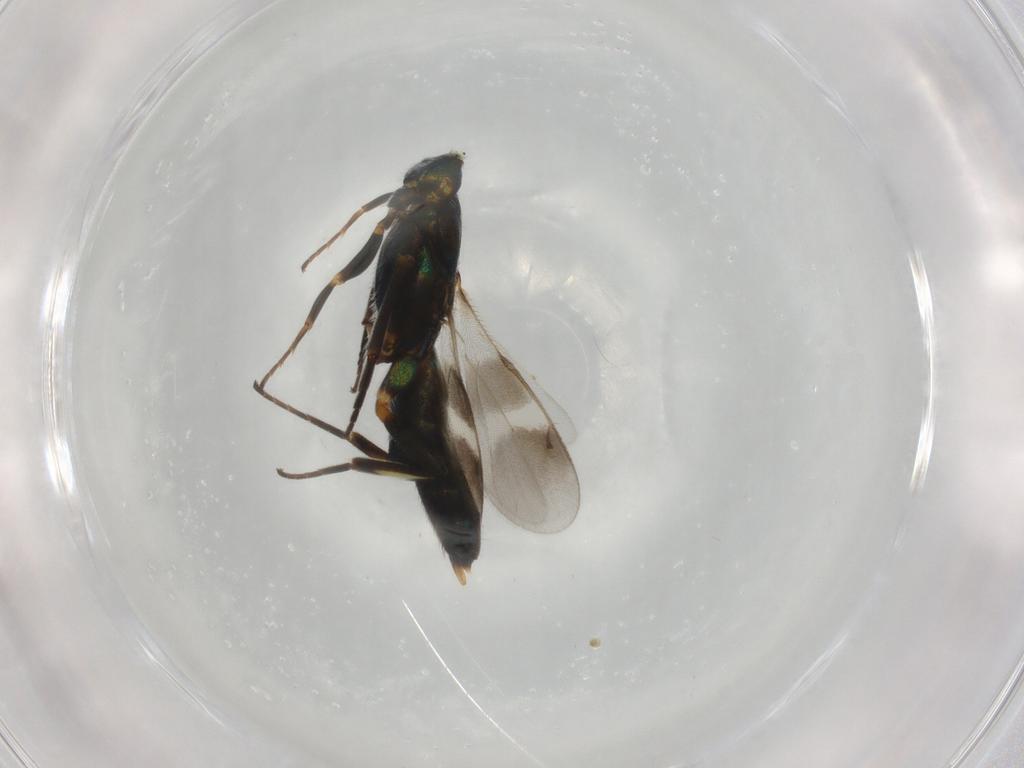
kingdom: Animalia
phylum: Arthropoda
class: Insecta
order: Hymenoptera
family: Eupelmidae
